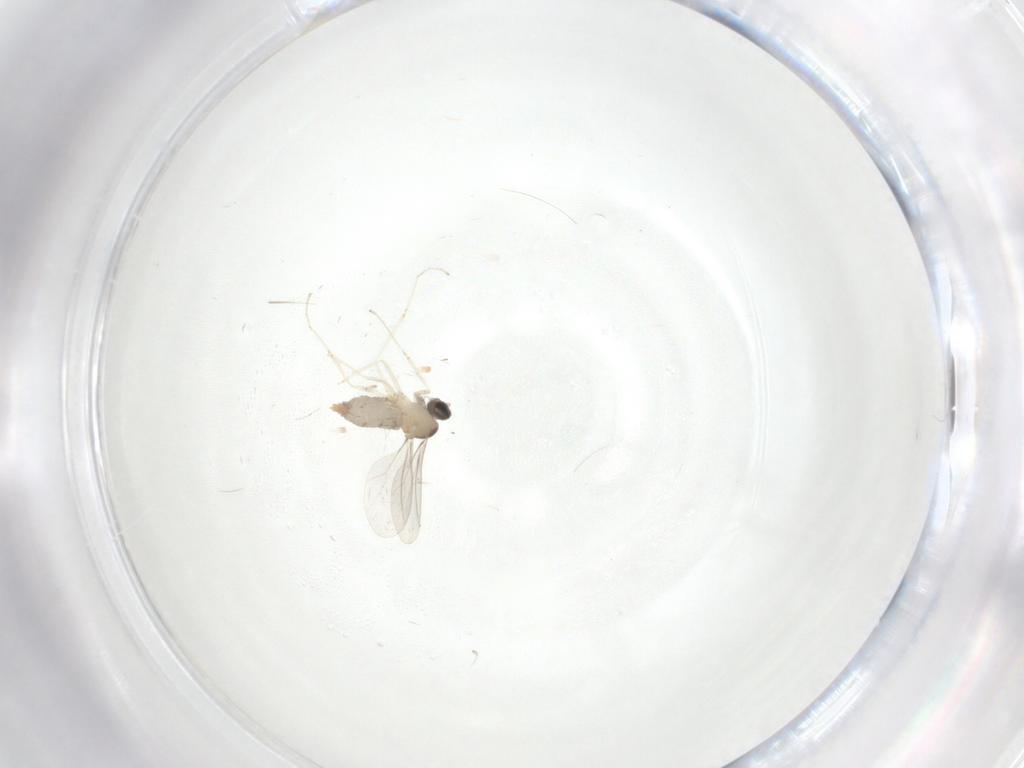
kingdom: Animalia
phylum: Arthropoda
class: Insecta
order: Diptera
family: Cecidomyiidae
